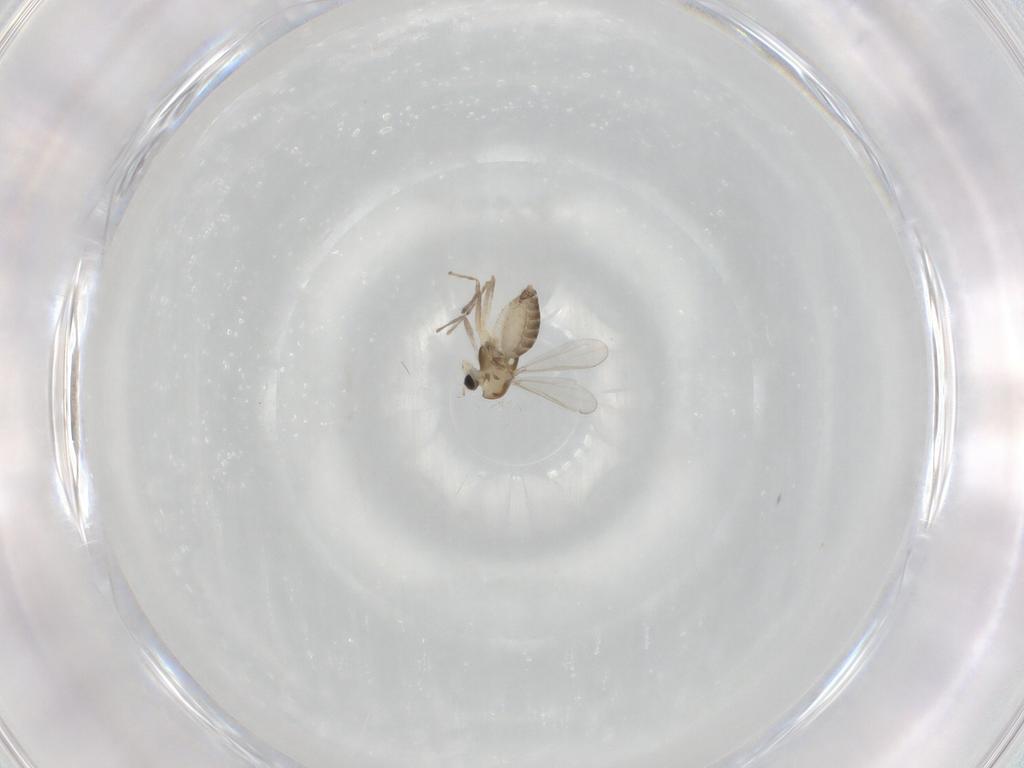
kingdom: Animalia
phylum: Arthropoda
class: Insecta
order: Diptera
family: Chironomidae
